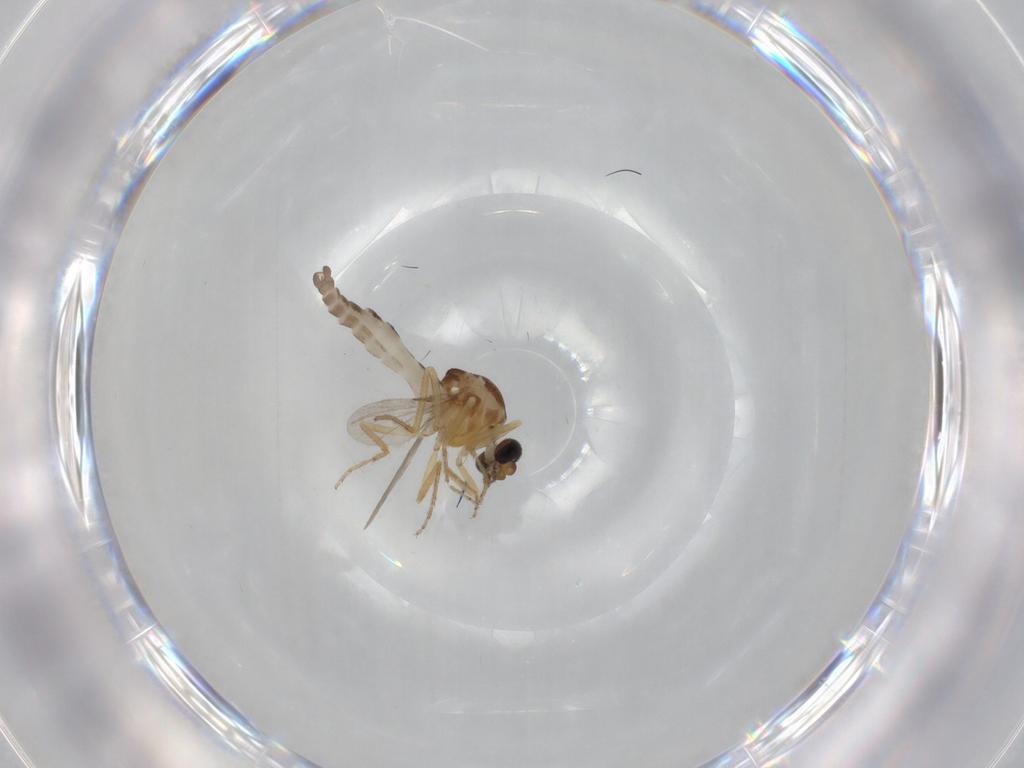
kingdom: Animalia
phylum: Arthropoda
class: Insecta
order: Diptera
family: Ceratopogonidae
